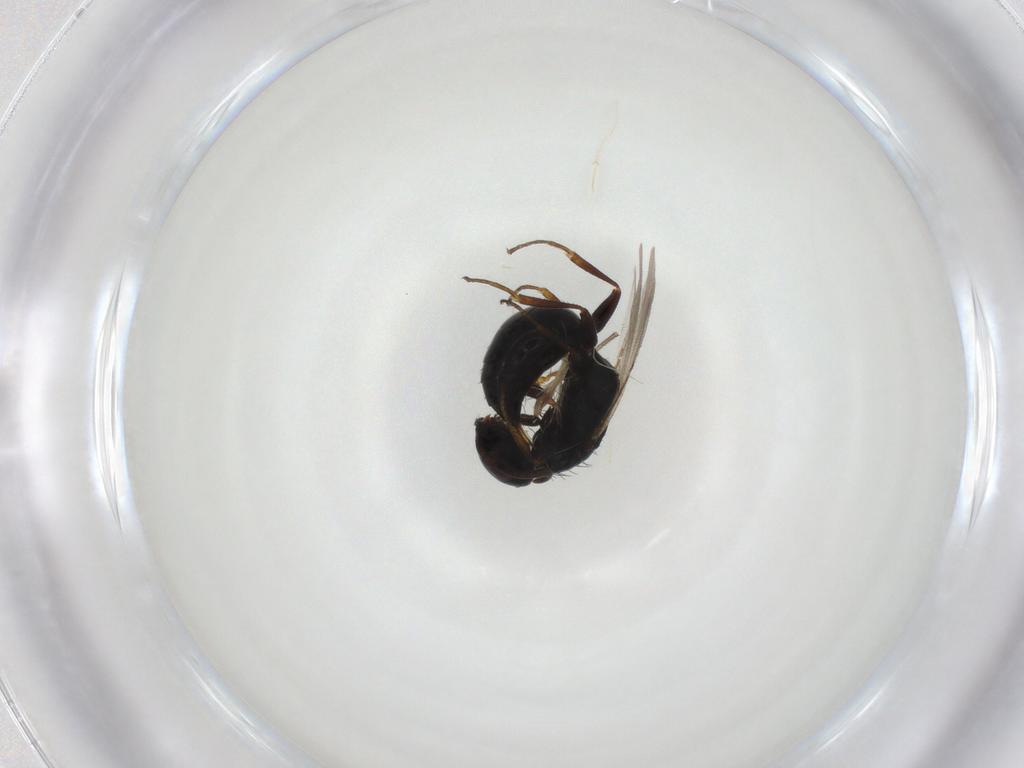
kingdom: Animalia
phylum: Arthropoda
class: Insecta
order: Hymenoptera
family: Bethylidae
